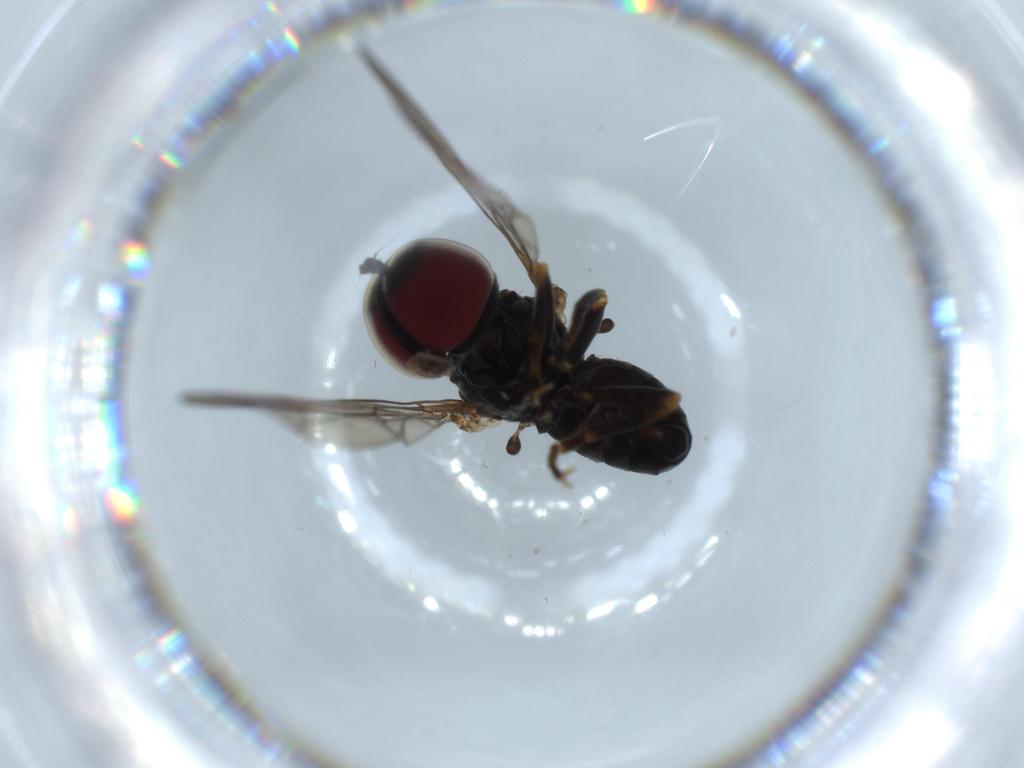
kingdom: Animalia
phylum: Arthropoda
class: Insecta
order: Diptera
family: Pipunculidae
